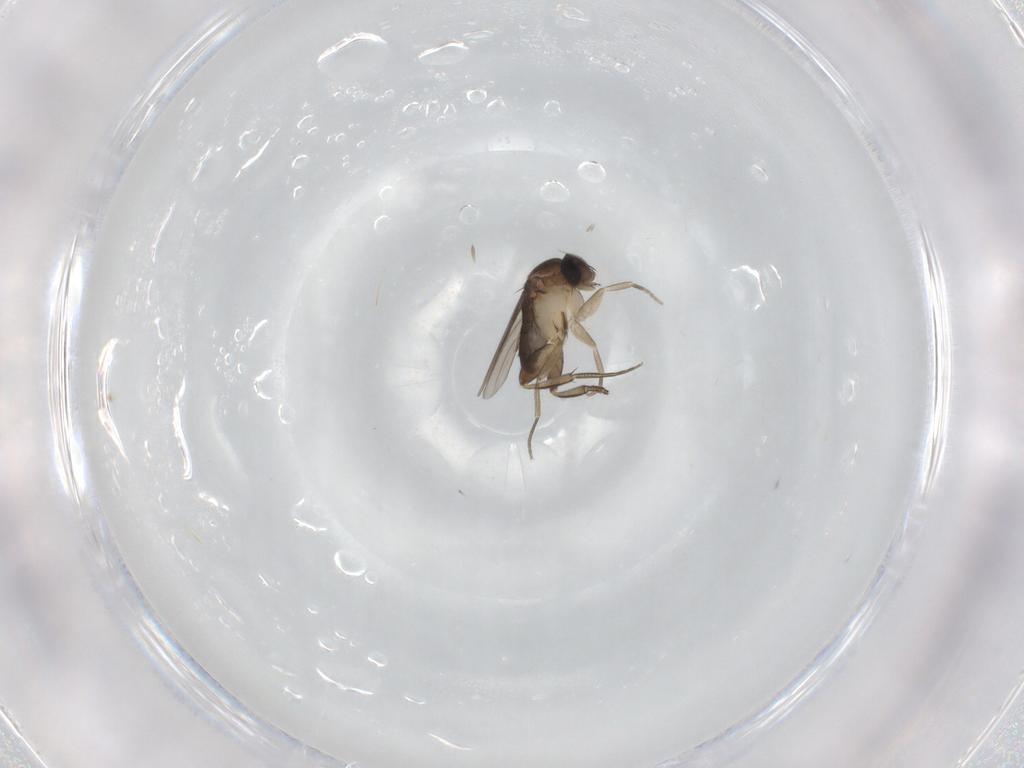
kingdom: Animalia
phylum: Arthropoda
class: Insecta
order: Diptera
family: Phoridae
